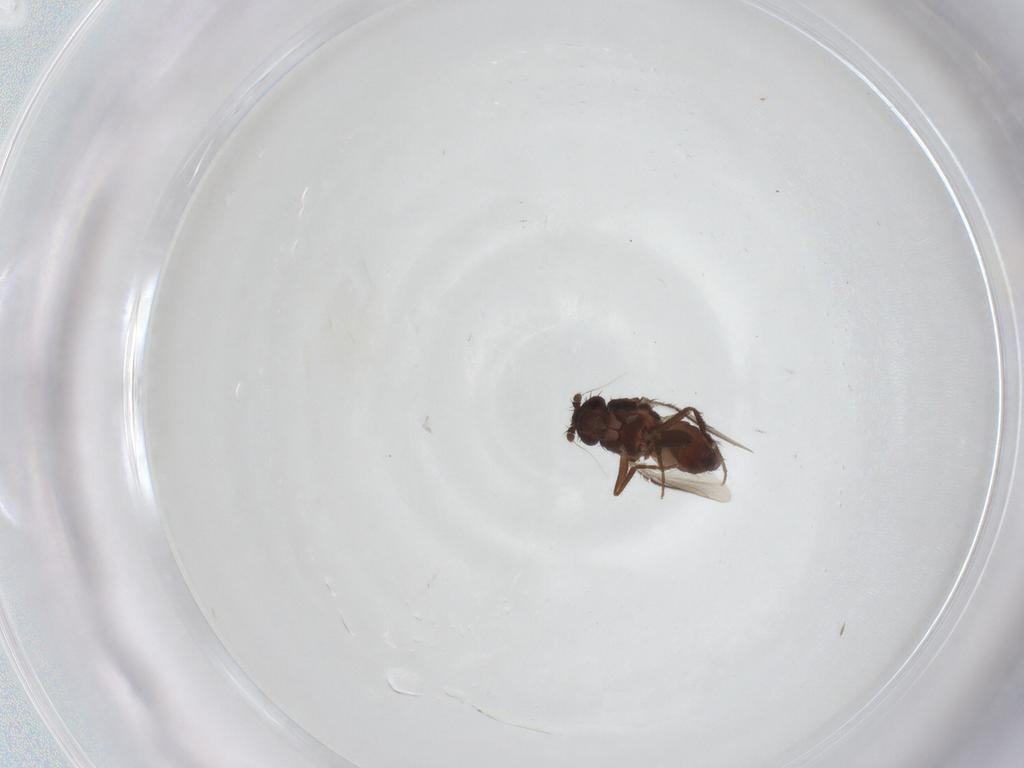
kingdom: Animalia
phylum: Arthropoda
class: Insecta
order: Diptera
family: Sphaeroceridae
